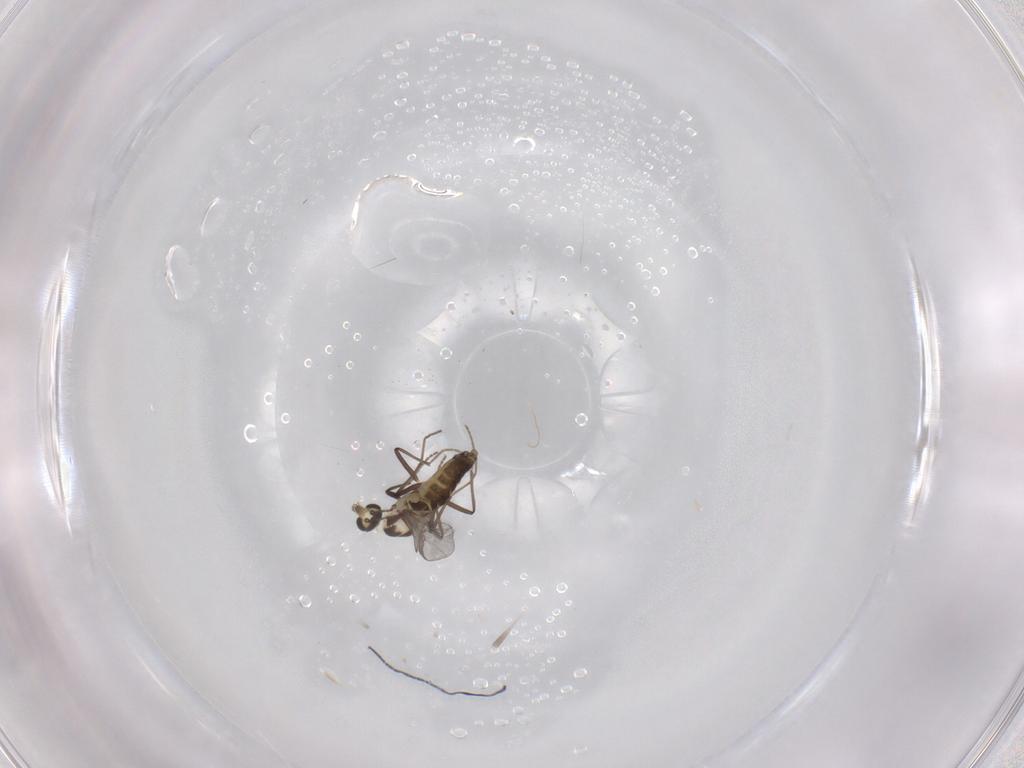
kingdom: Animalia
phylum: Arthropoda
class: Insecta
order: Diptera
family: Chironomidae
